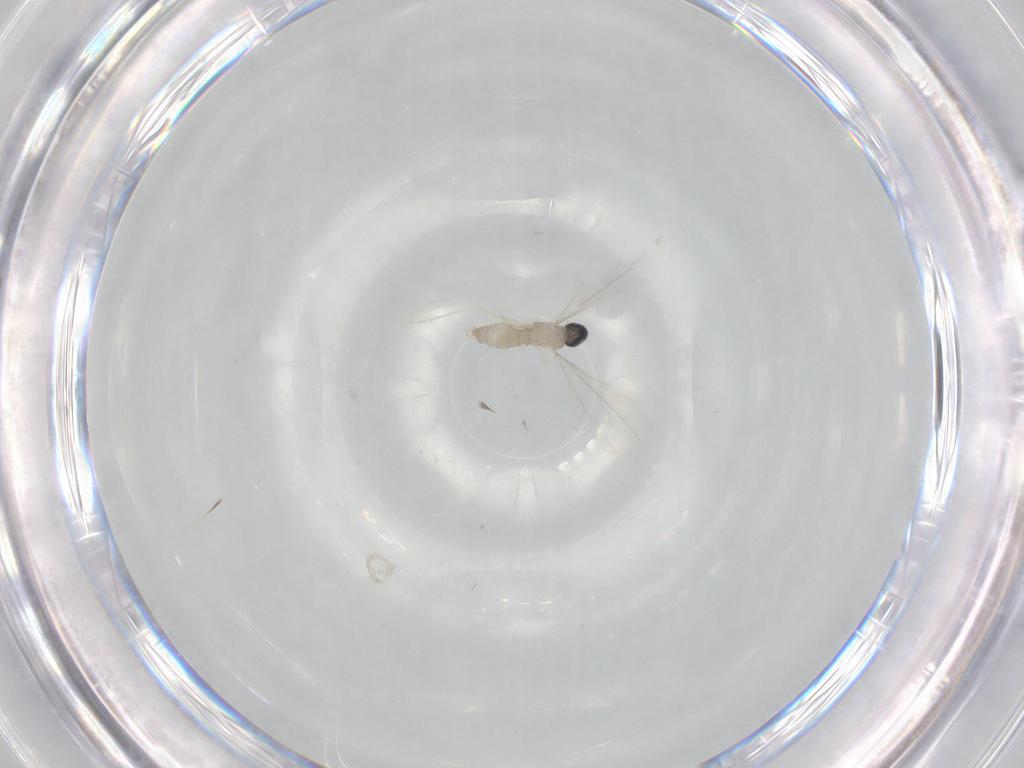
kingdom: Animalia
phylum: Arthropoda
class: Insecta
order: Diptera
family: Cecidomyiidae
